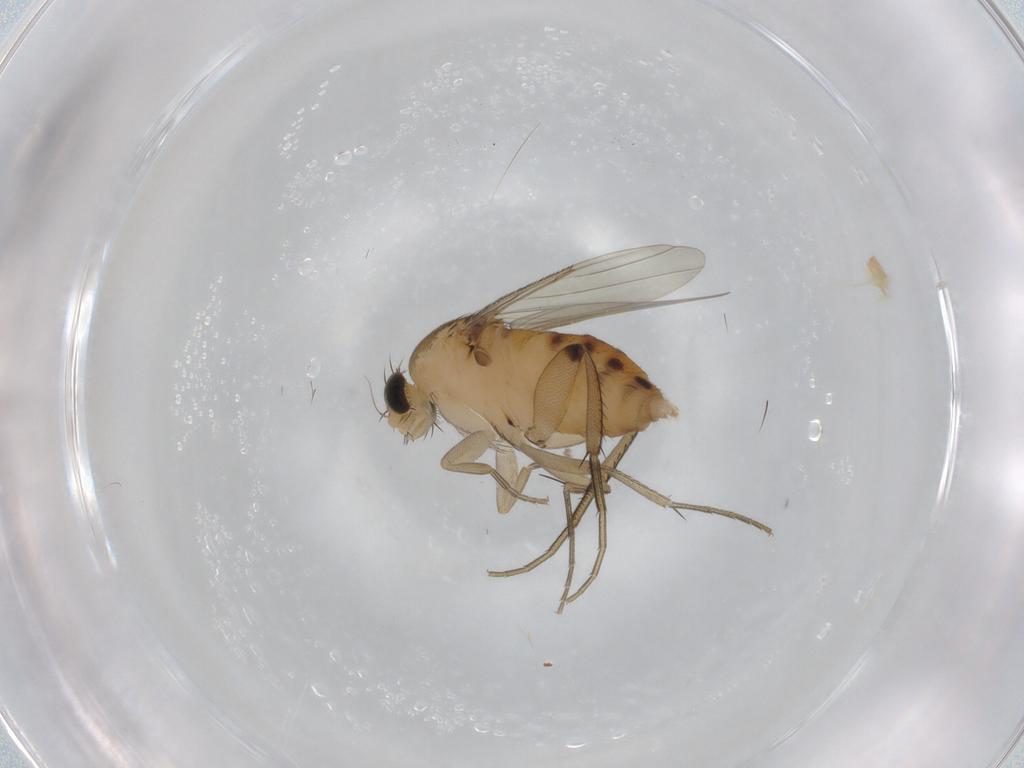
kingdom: Animalia
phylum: Arthropoda
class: Insecta
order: Diptera
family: Phoridae
